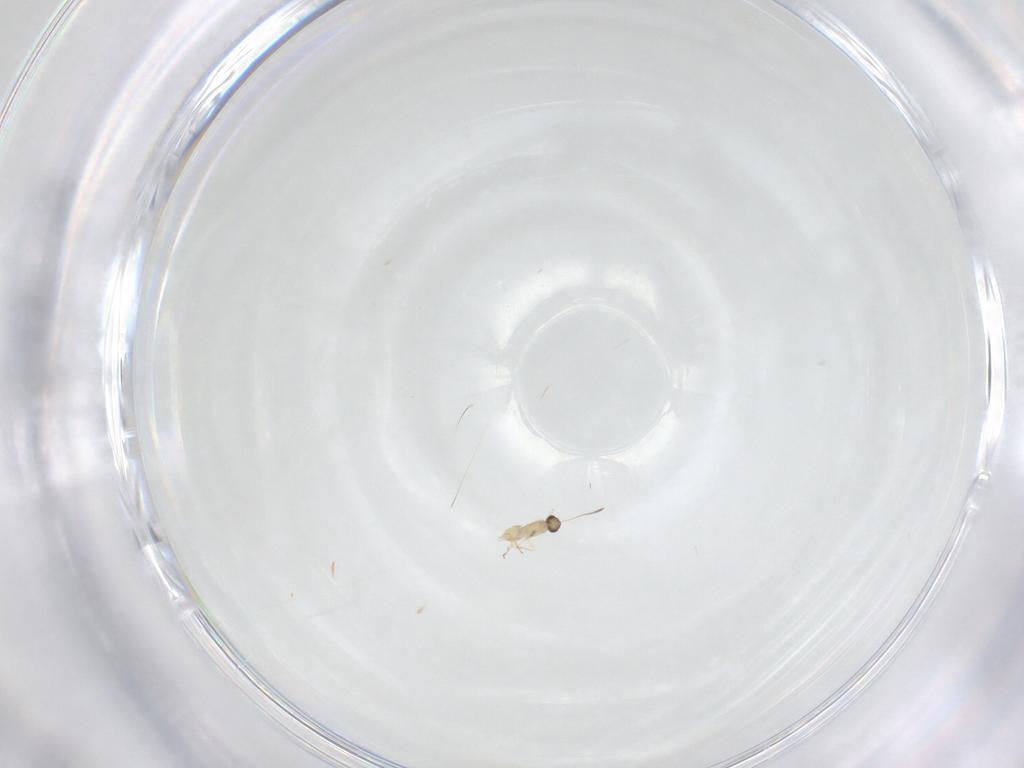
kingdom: Animalia
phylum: Arthropoda
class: Insecta
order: Hymenoptera
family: Mymaridae
